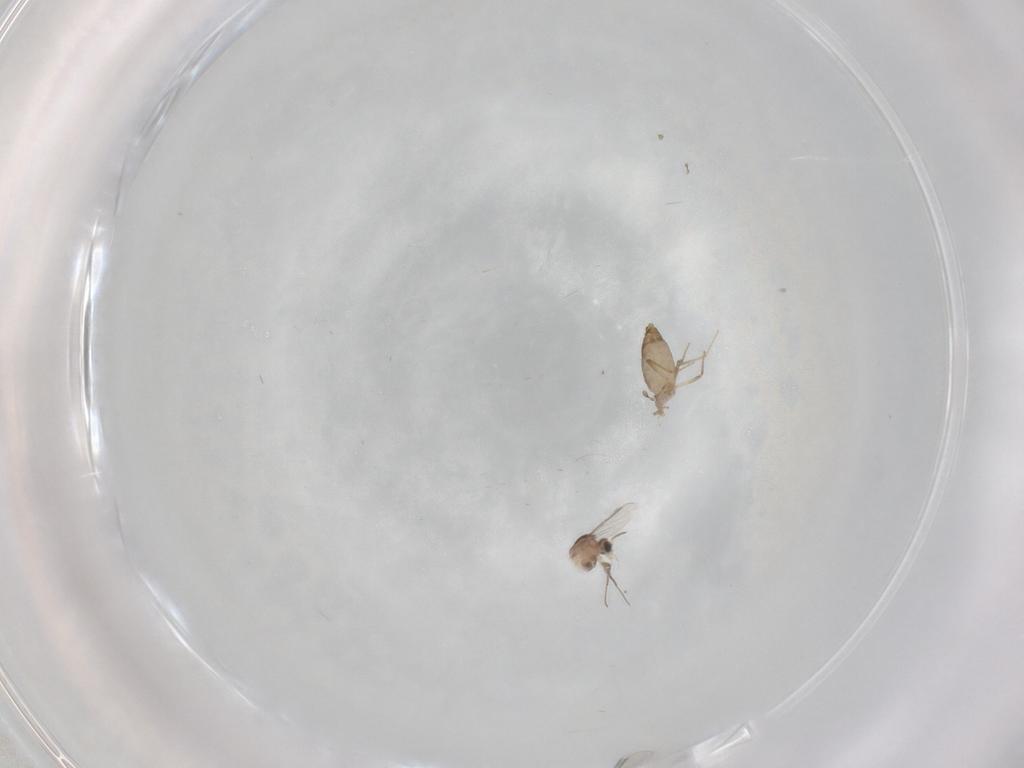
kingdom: Animalia
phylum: Arthropoda
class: Insecta
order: Diptera
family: Chironomidae
